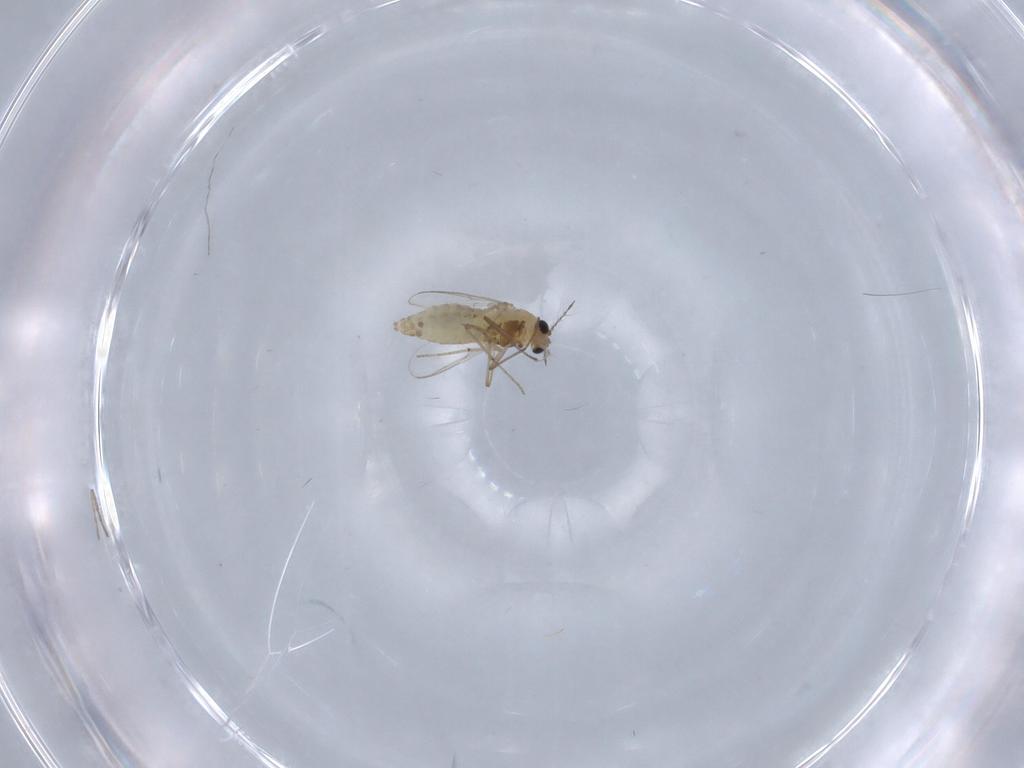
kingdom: Animalia
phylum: Arthropoda
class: Insecta
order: Diptera
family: Chironomidae
